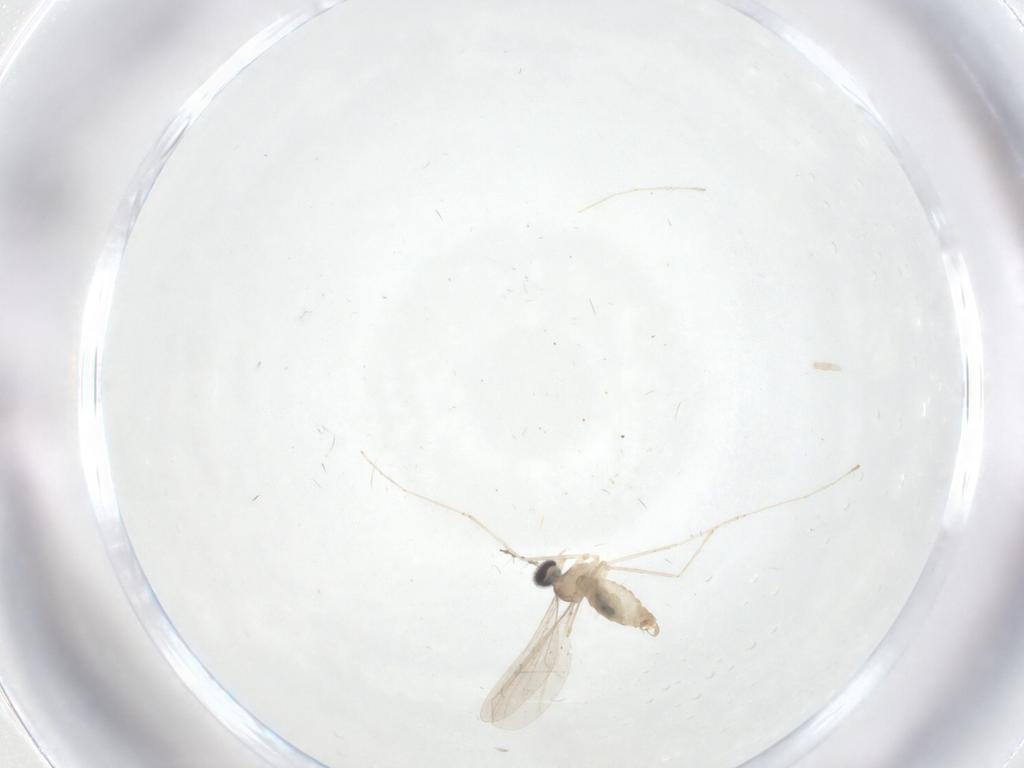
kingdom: Animalia
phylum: Arthropoda
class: Insecta
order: Diptera
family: Cecidomyiidae
